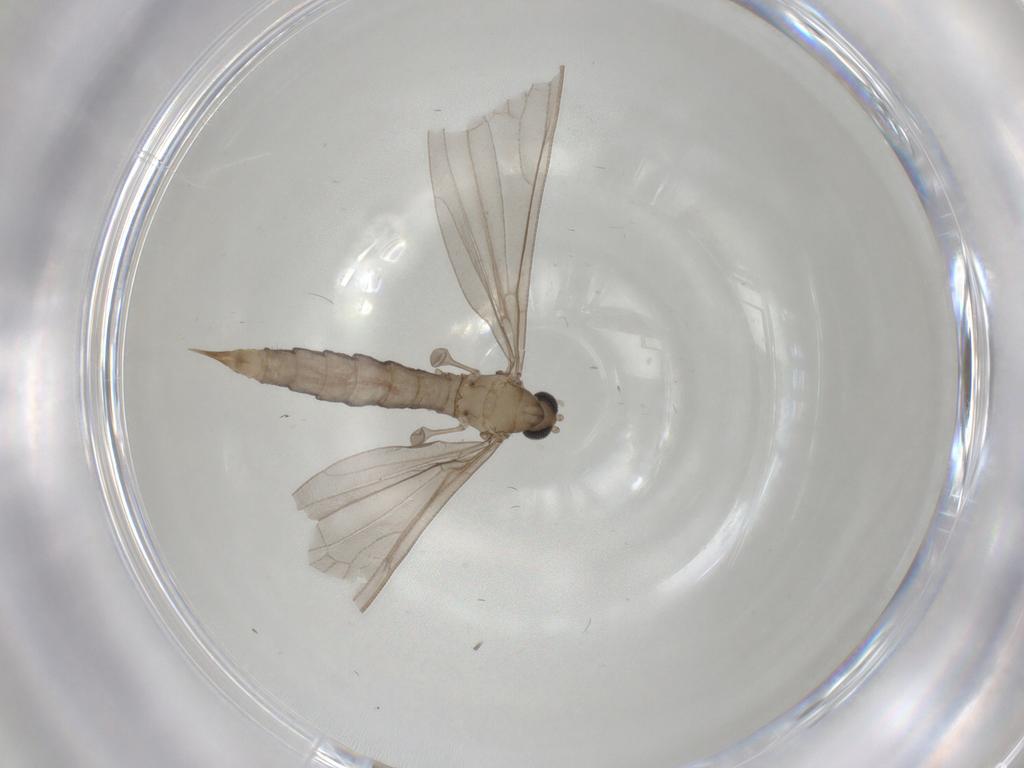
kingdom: Animalia
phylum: Arthropoda
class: Insecta
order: Diptera
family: Limoniidae
